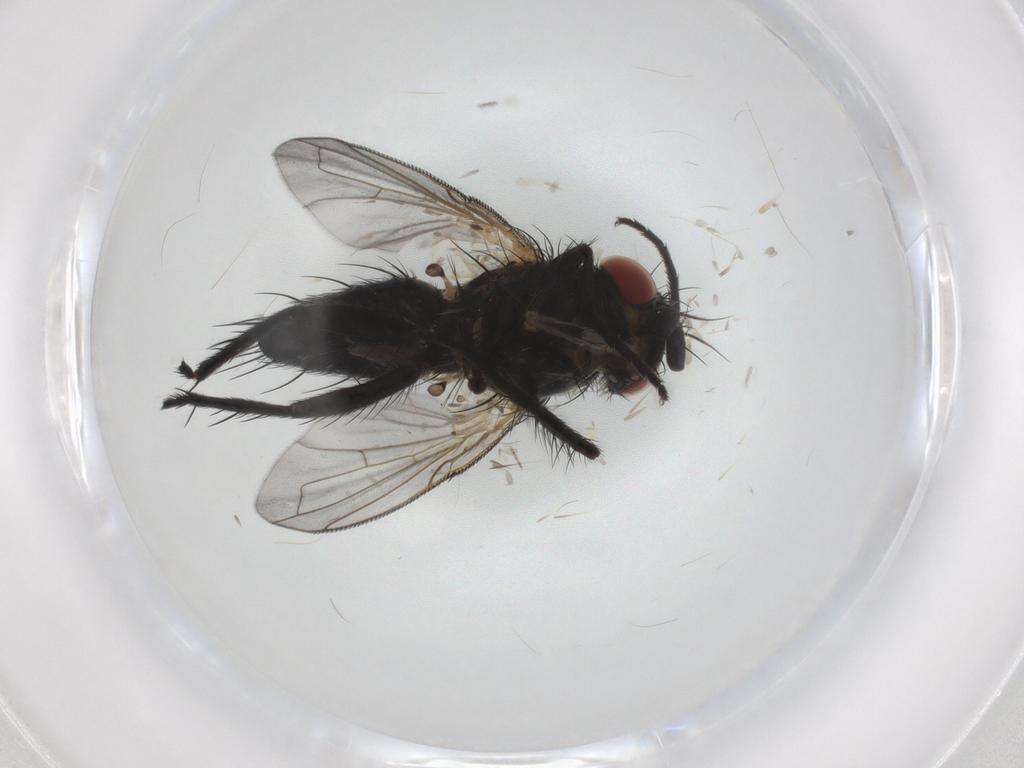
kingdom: Animalia
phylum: Arthropoda
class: Insecta
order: Diptera
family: Tachinidae
